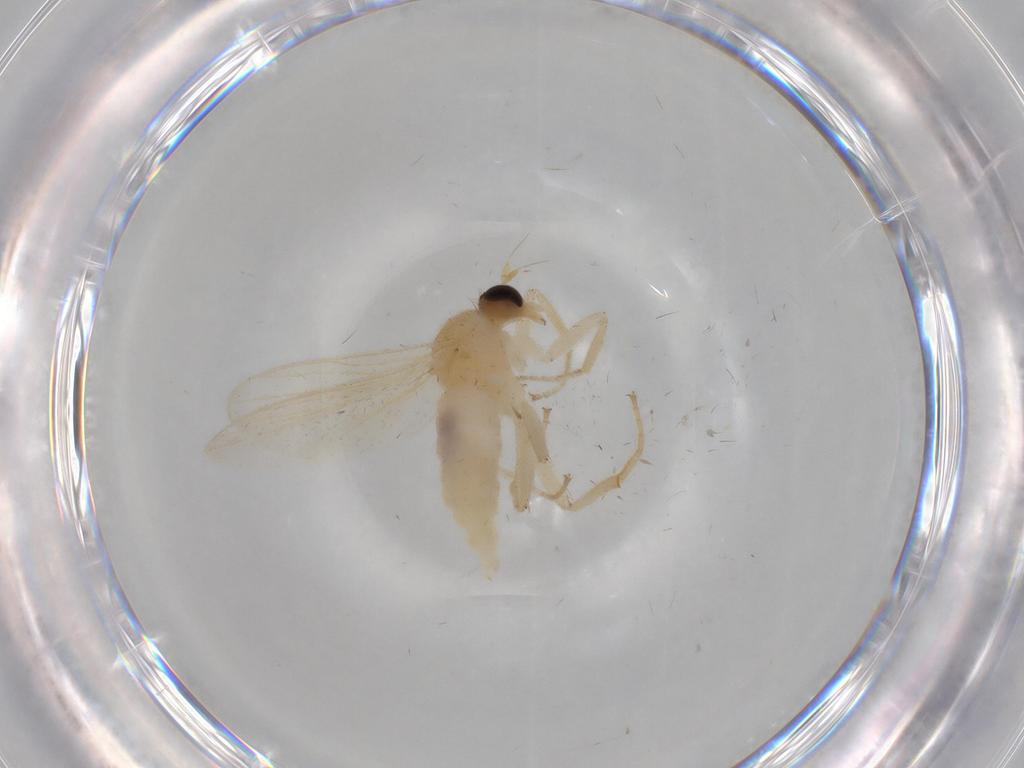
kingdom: Animalia
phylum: Arthropoda
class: Insecta
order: Diptera
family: Hybotidae
